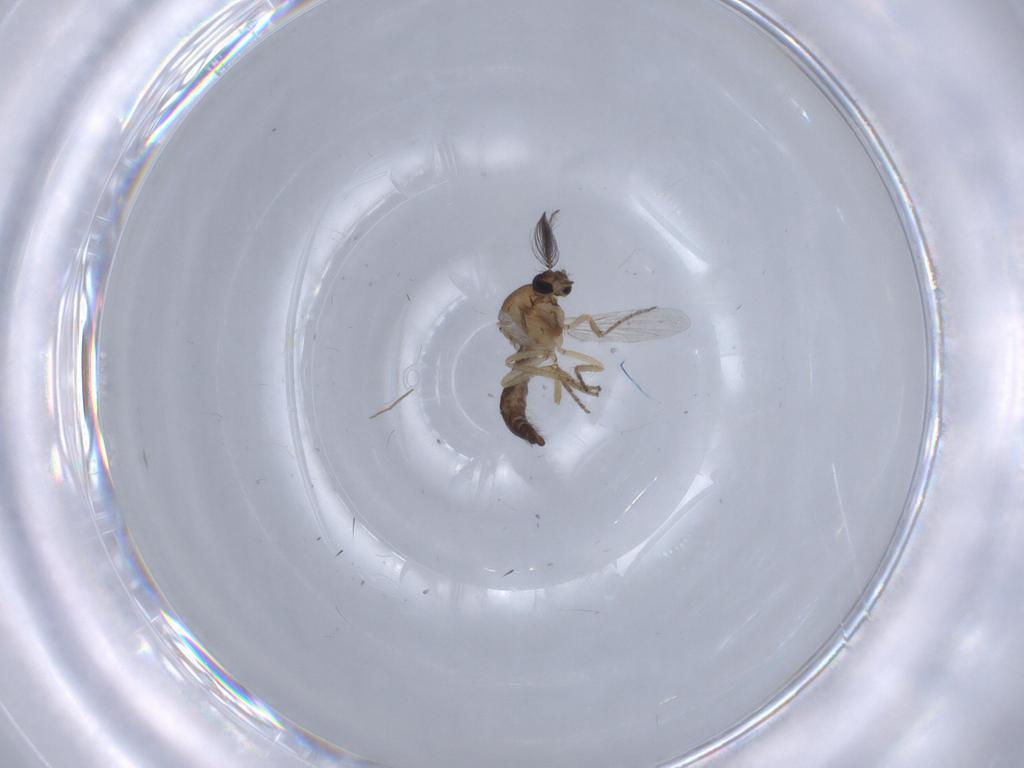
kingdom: Animalia
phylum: Arthropoda
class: Insecta
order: Diptera
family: Ceratopogonidae
